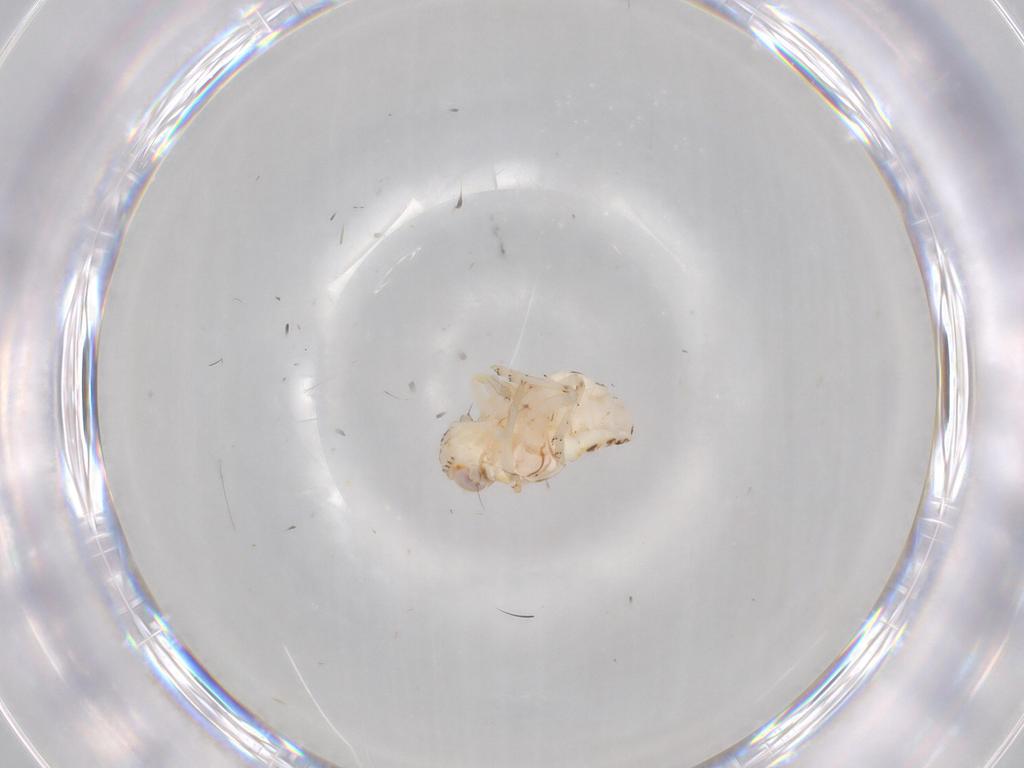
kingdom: Animalia
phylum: Arthropoda
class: Insecta
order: Hemiptera
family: Nogodinidae
